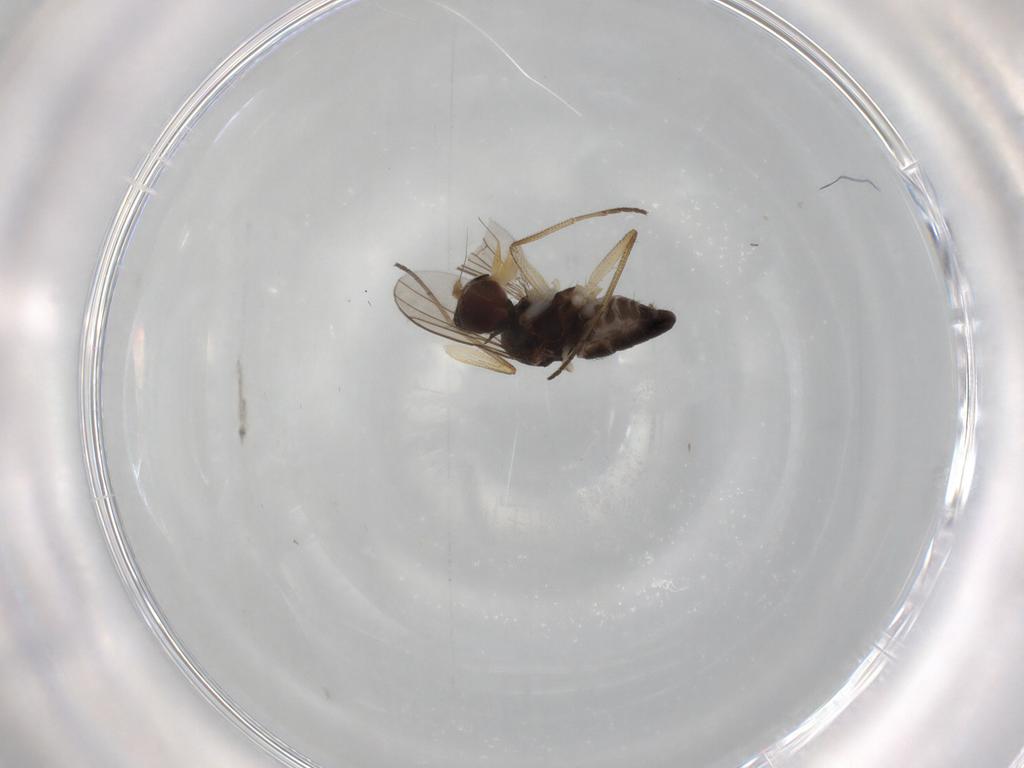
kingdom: Animalia
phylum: Arthropoda
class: Insecta
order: Diptera
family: Dolichopodidae
